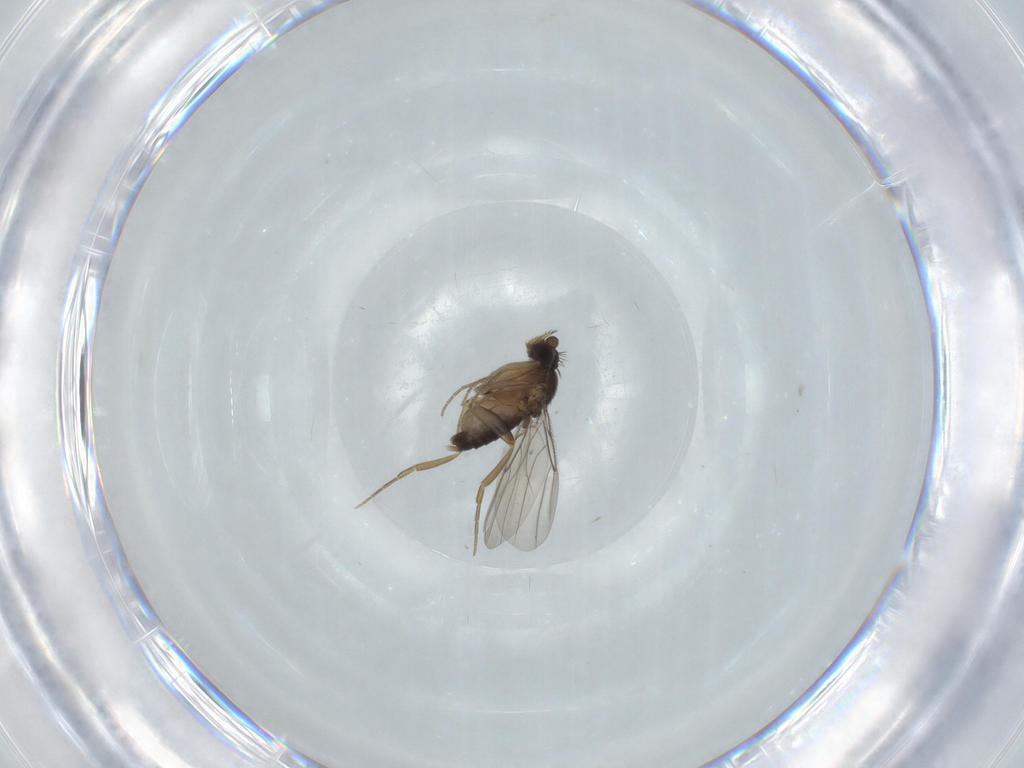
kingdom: Animalia
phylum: Arthropoda
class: Insecta
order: Diptera
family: Phoridae
